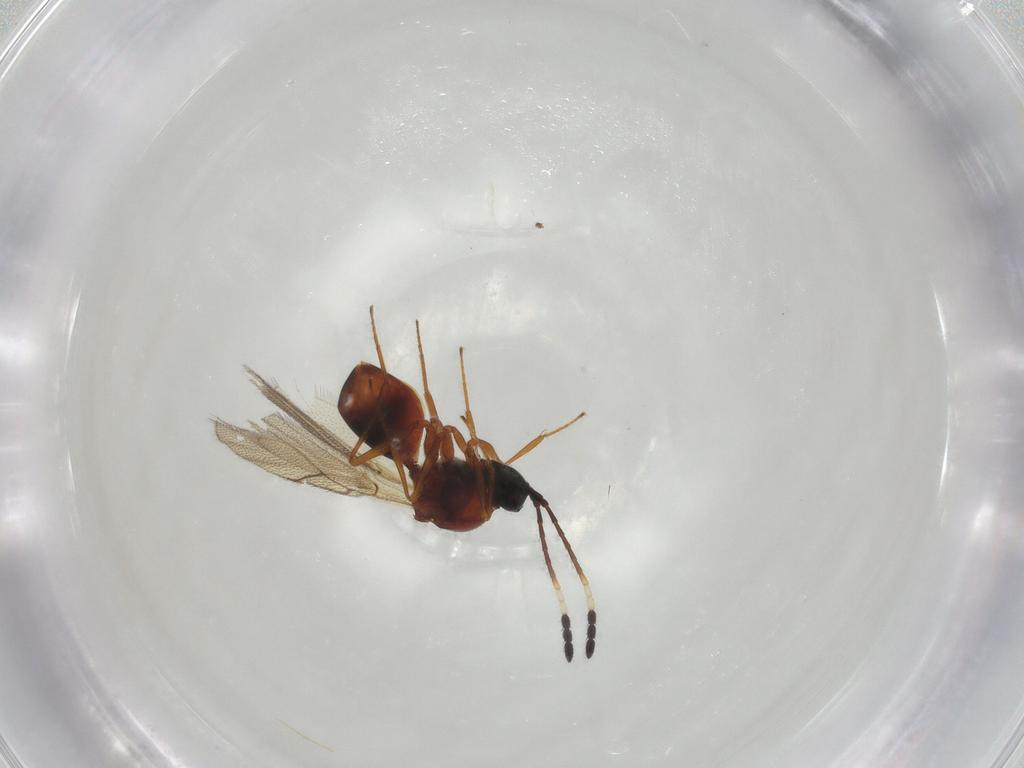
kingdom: Animalia
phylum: Arthropoda
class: Insecta
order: Hymenoptera
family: Figitidae
